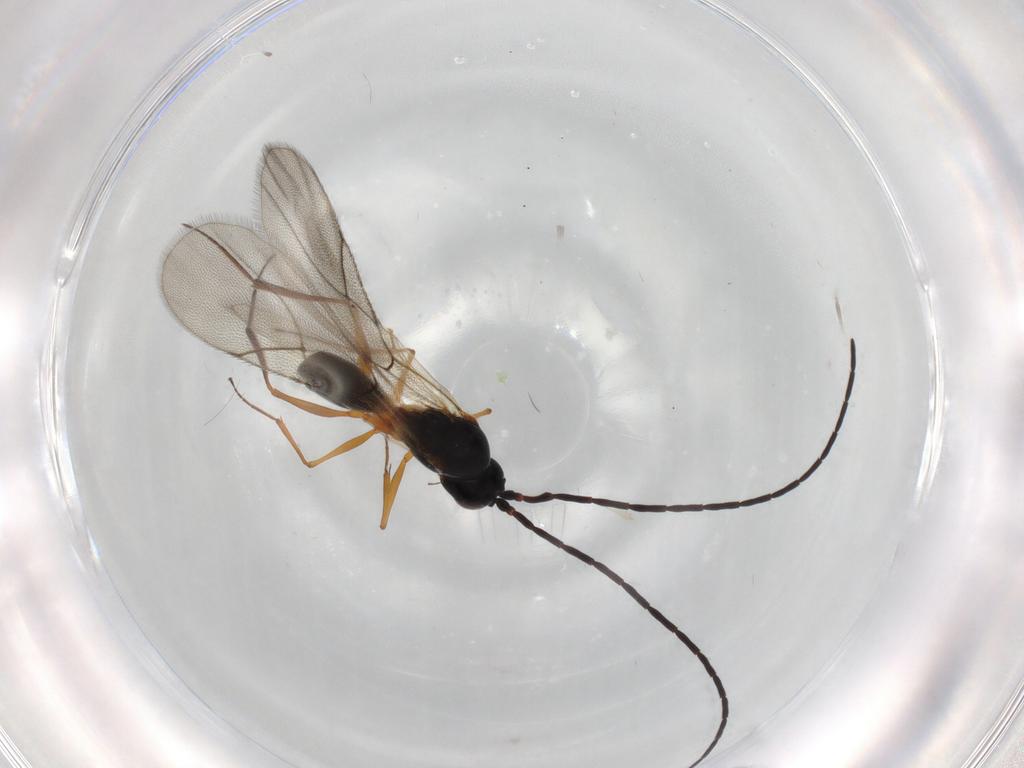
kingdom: Animalia
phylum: Arthropoda
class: Insecta
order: Hymenoptera
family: Figitidae
